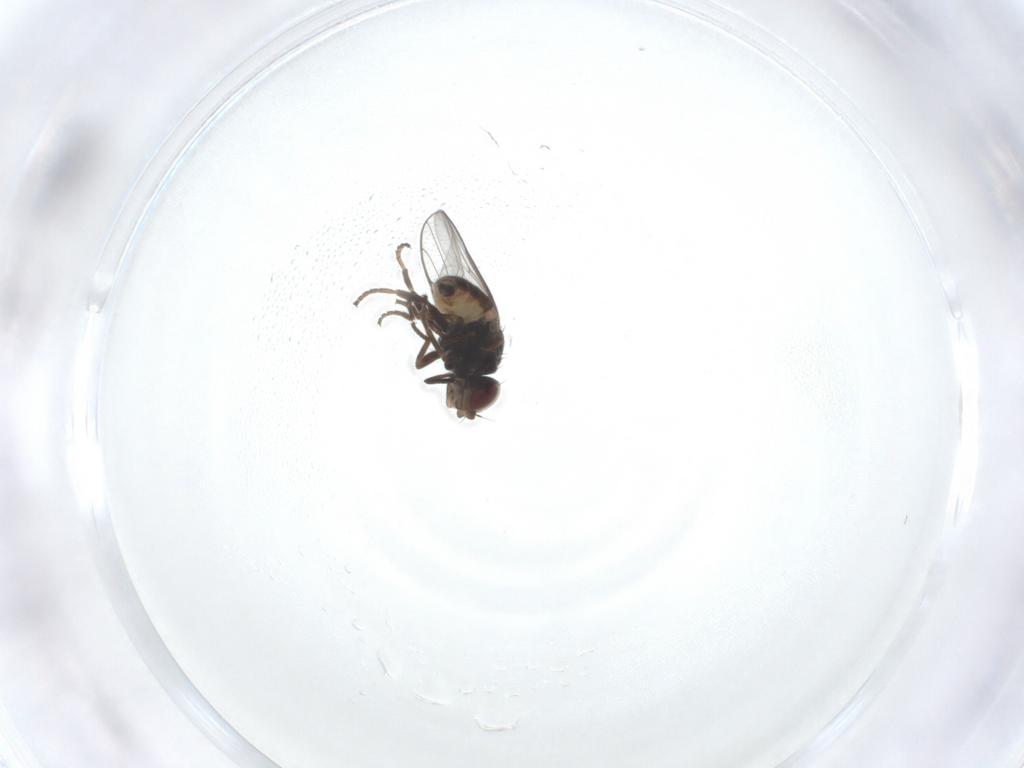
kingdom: Animalia
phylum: Arthropoda
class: Insecta
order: Diptera
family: Chloropidae
